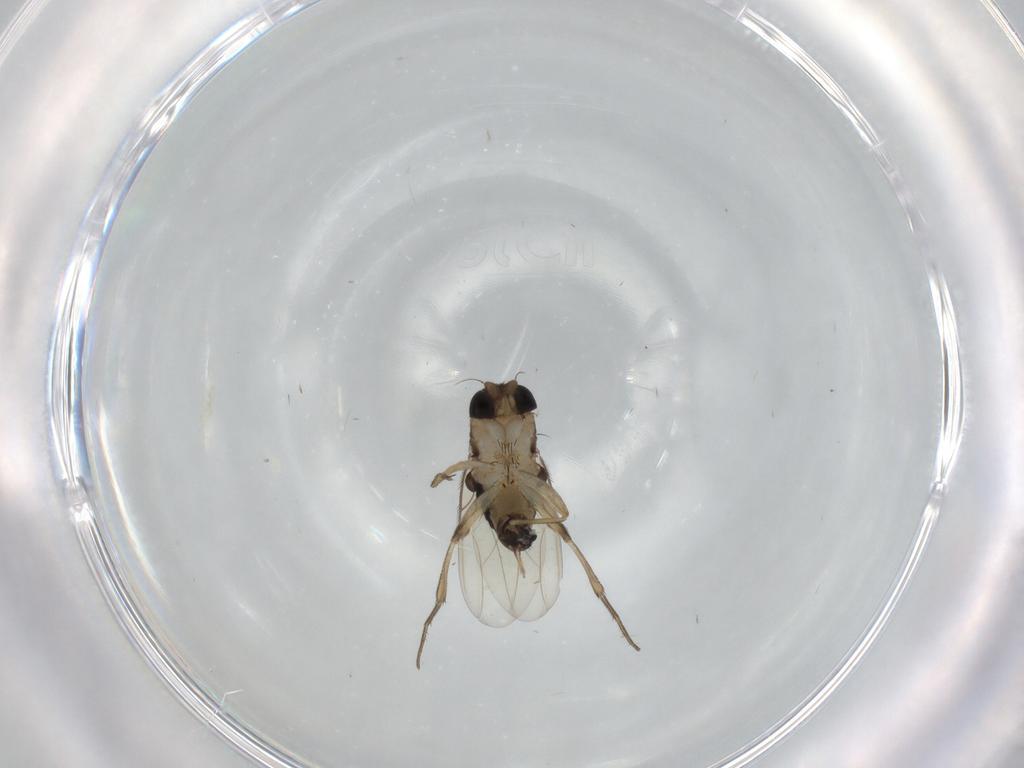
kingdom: Animalia
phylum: Arthropoda
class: Insecta
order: Diptera
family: Phoridae
